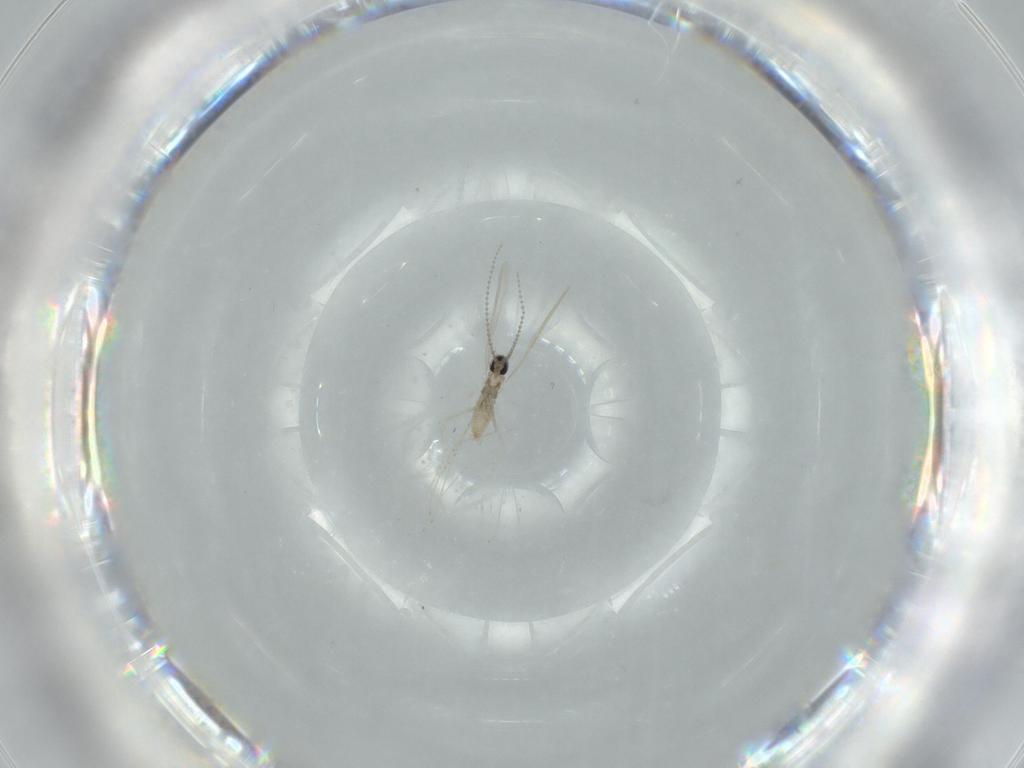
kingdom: Animalia
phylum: Arthropoda
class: Insecta
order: Diptera
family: Cecidomyiidae
